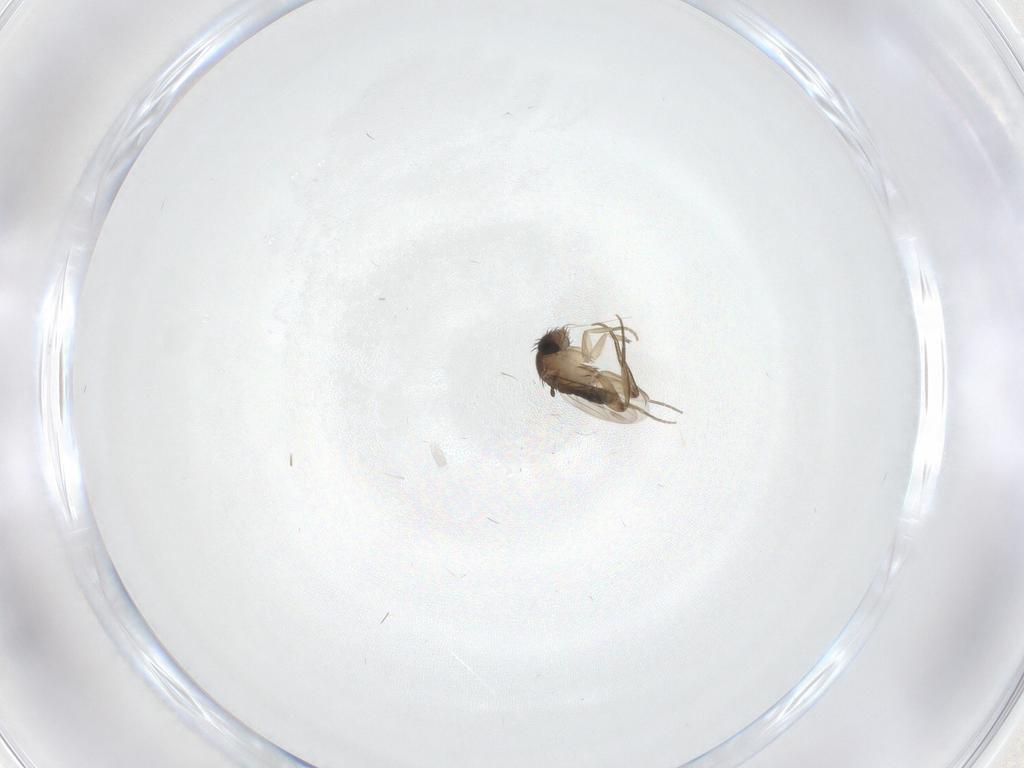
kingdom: Animalia
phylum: Arthropoda
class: Insecta
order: Diptera
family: Phoridae
